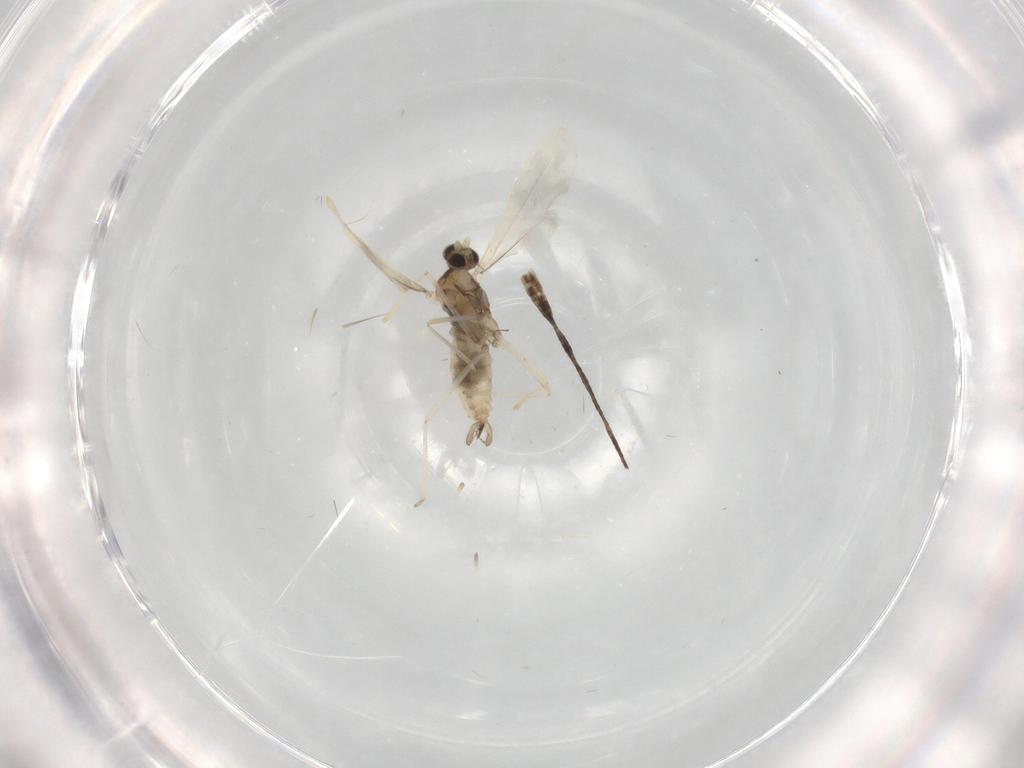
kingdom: Animalia
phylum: Arthropoda
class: Insecta
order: Diptera
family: Cecidomyiidae
